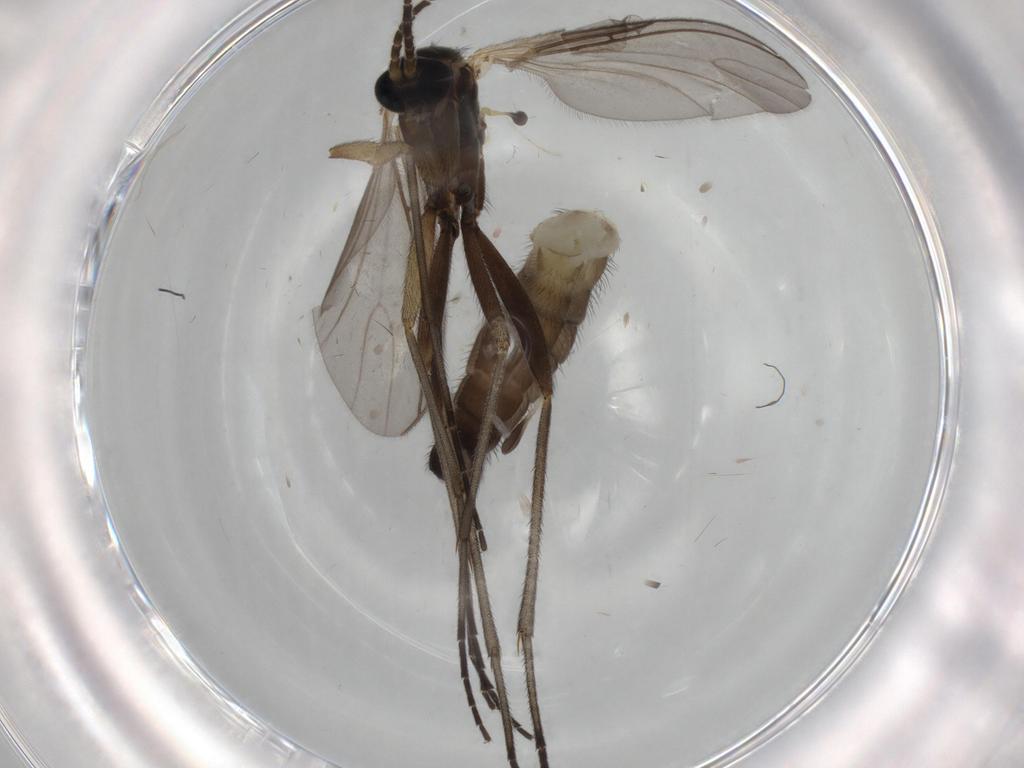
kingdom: Animalia
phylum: Arthropoda
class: Insecta
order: Diptera
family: Sciaridae
